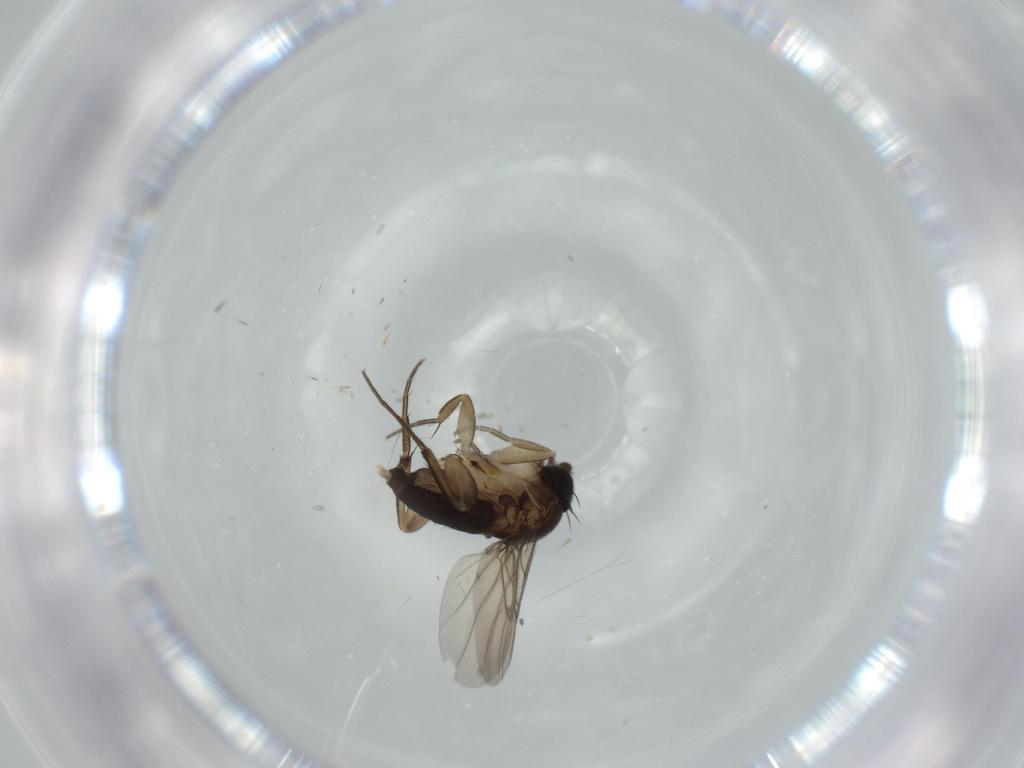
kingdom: Animalia
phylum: Arthropoda
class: Insecta
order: Diptera
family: Phoridae
